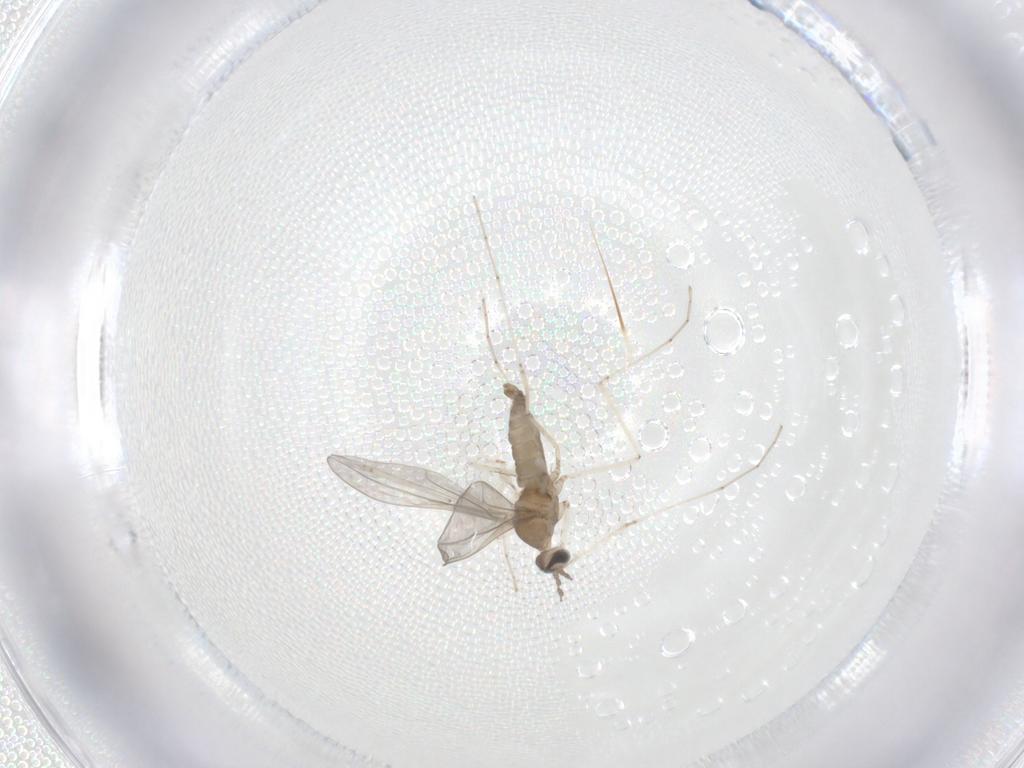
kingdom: Animalia
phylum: Arthropoda
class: Insecta
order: Diptera
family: Cecidomyiidae
